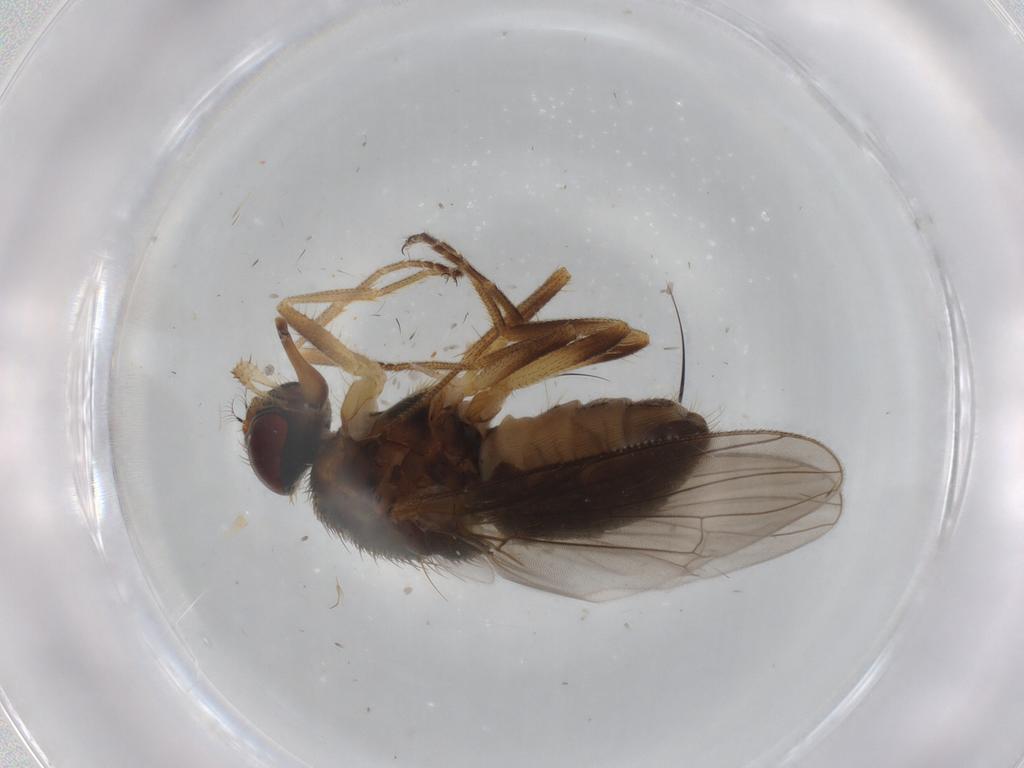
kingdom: Animalia
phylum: Arthropoda
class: Insecta
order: Diptera
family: Muscidae
